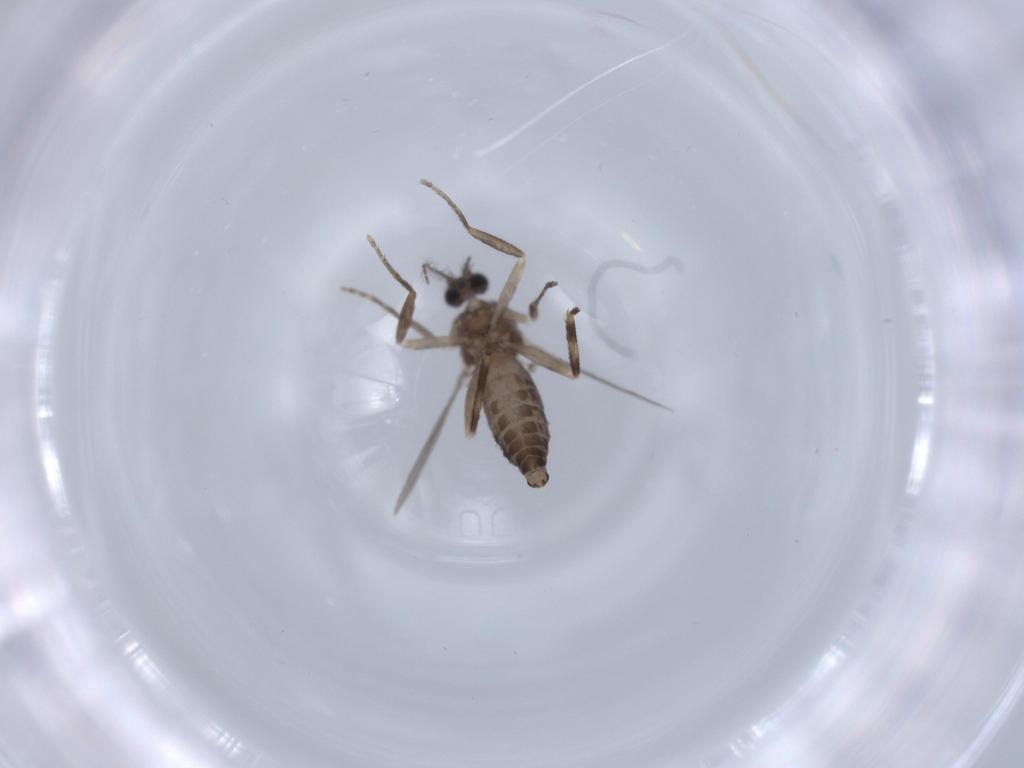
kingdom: Animalia
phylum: Arthropoda
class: Insecta
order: Diptera
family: Ceratopogonidae
